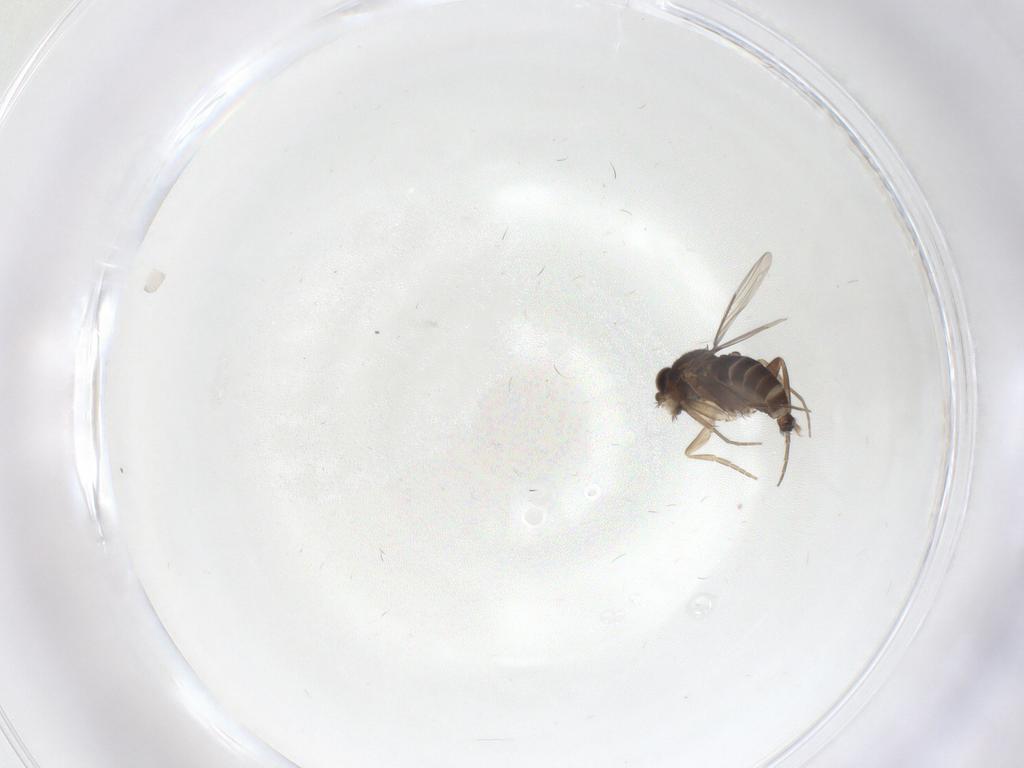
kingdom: Animalia
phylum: Arthropoda
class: Insecta
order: Diptera
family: Phoridae
